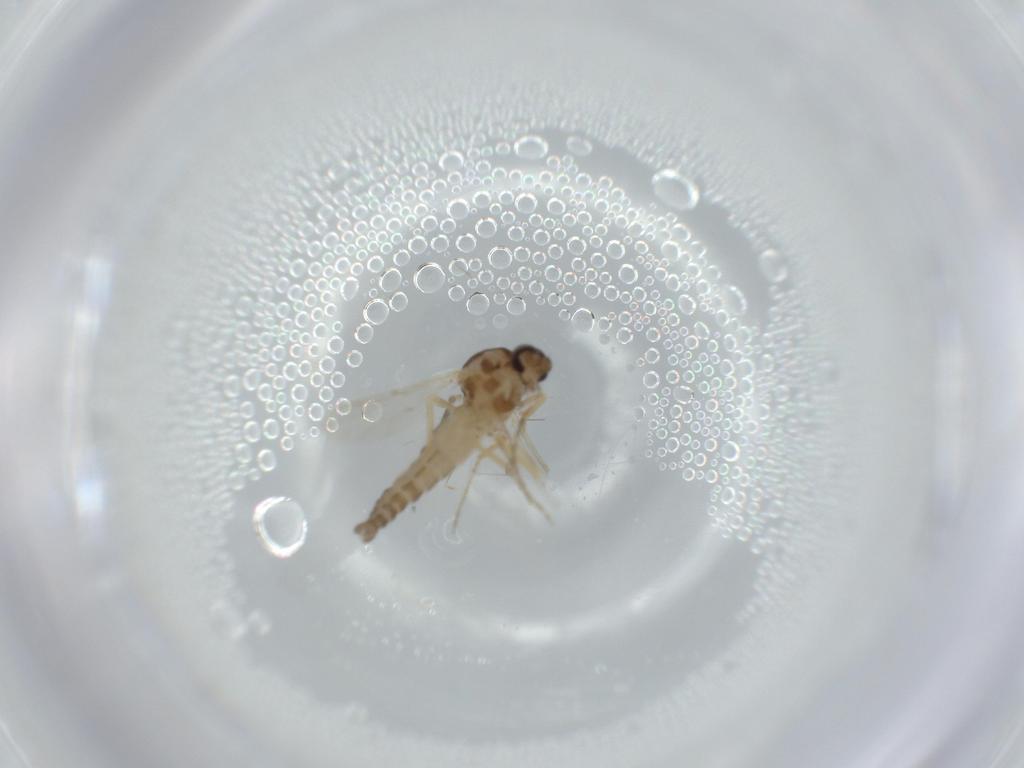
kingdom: Animalia
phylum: Arthropoda
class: Insecta
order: Diptera
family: Ceratopogonidae
